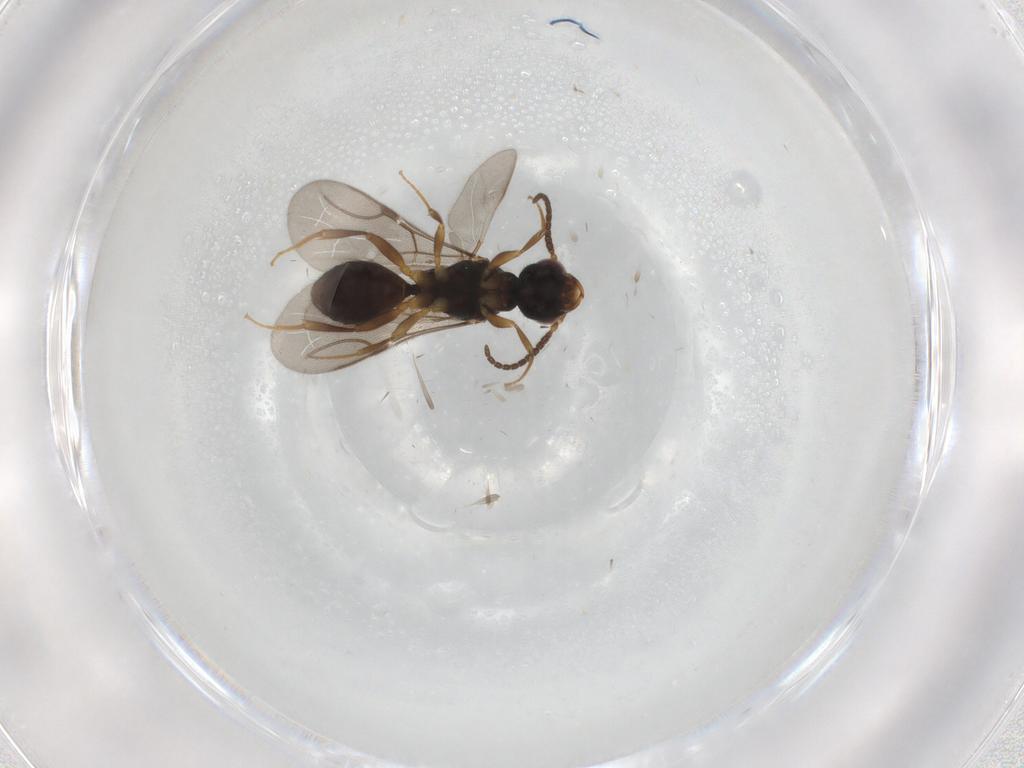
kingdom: Animalia
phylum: Arthropoda
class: Insecta
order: Hymenoptera
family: Bethylidae
